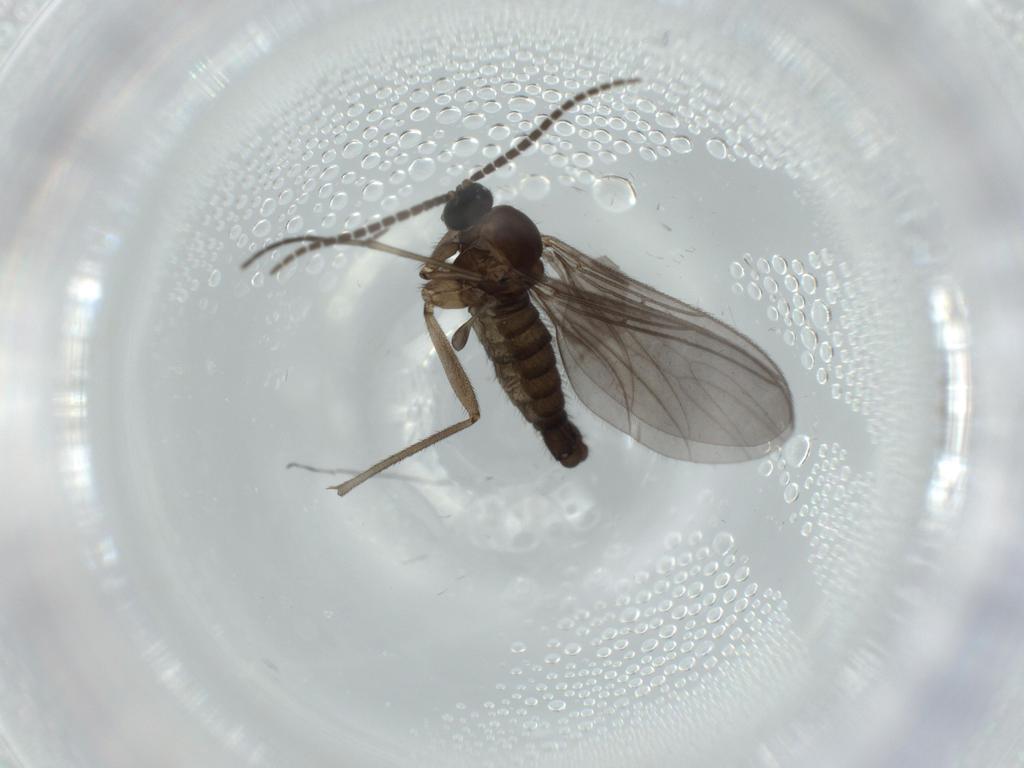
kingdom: Animalia
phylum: Arthropoda
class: Insecta
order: Diptera
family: Sciaridae
